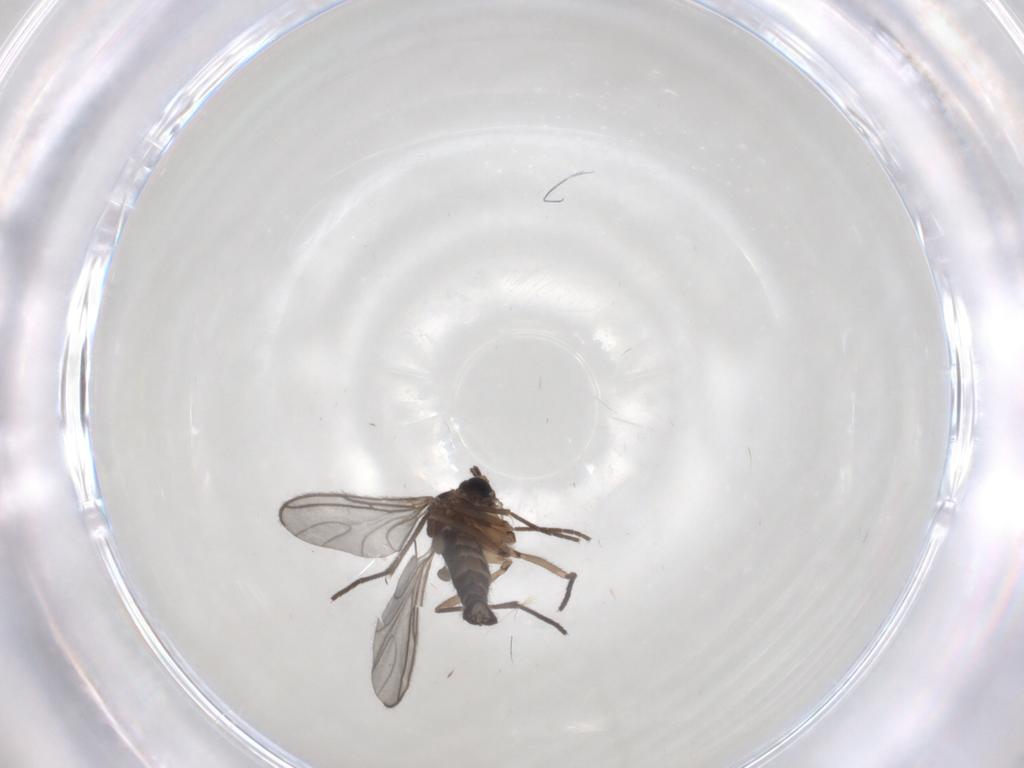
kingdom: Animalia
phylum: Arthropoda
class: Insecta
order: Diptera
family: Sciaridae
